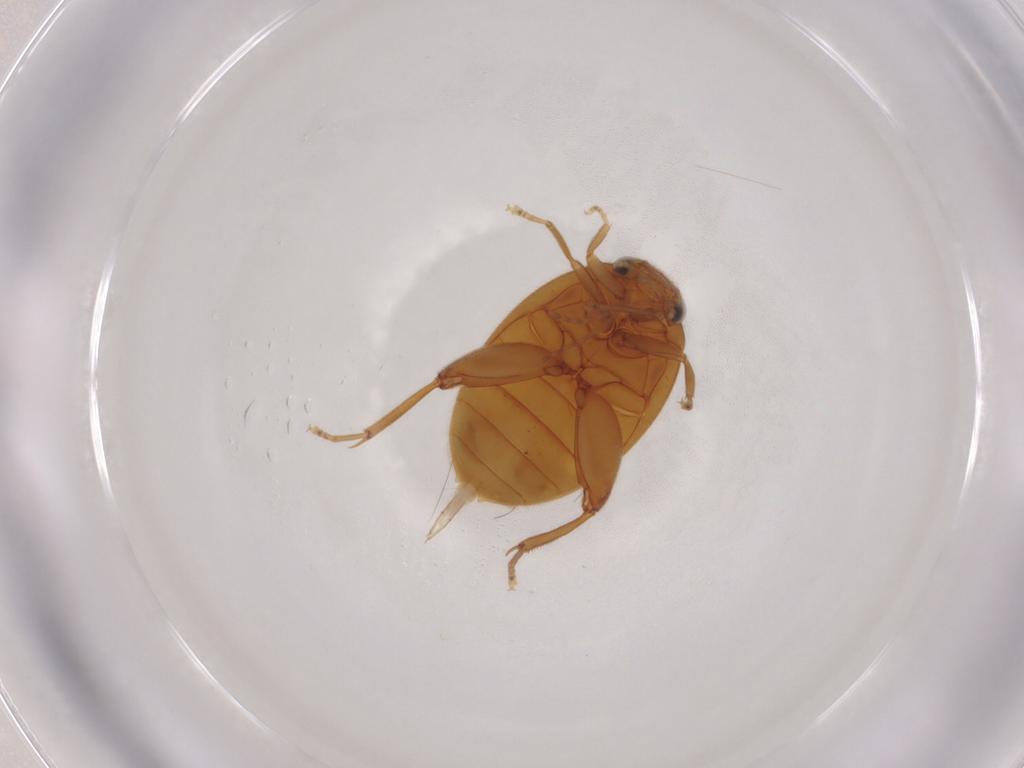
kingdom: Animalia
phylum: Arthropoda
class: Insecta
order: Coleoptera
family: Scirtidae
